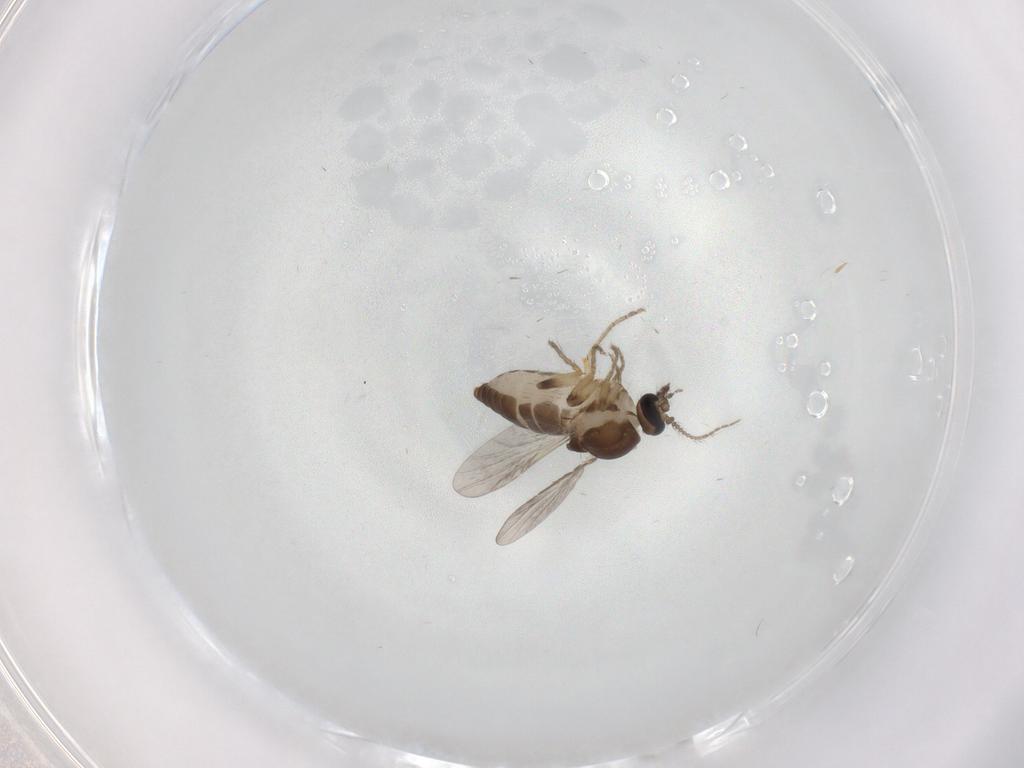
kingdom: Animalia
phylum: Arthropoda
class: Insecta
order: Diptera
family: Ceratopogonidae
